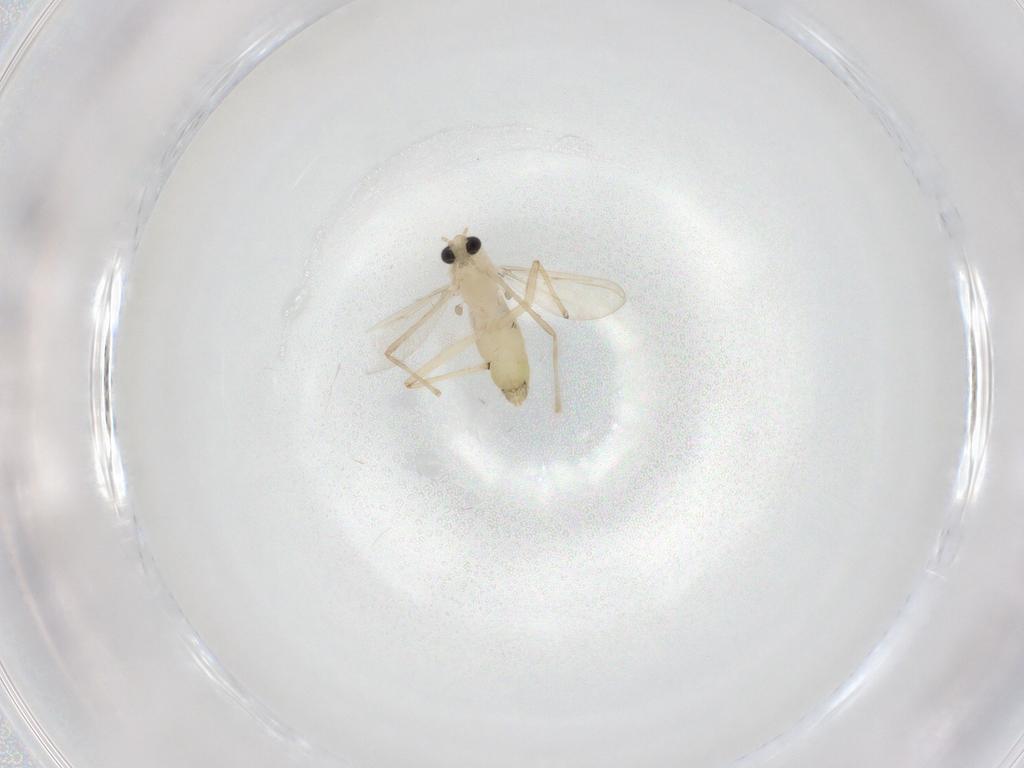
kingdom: Animalia
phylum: Arthropoda
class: Insecta
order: Diptera
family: Chironomidae
